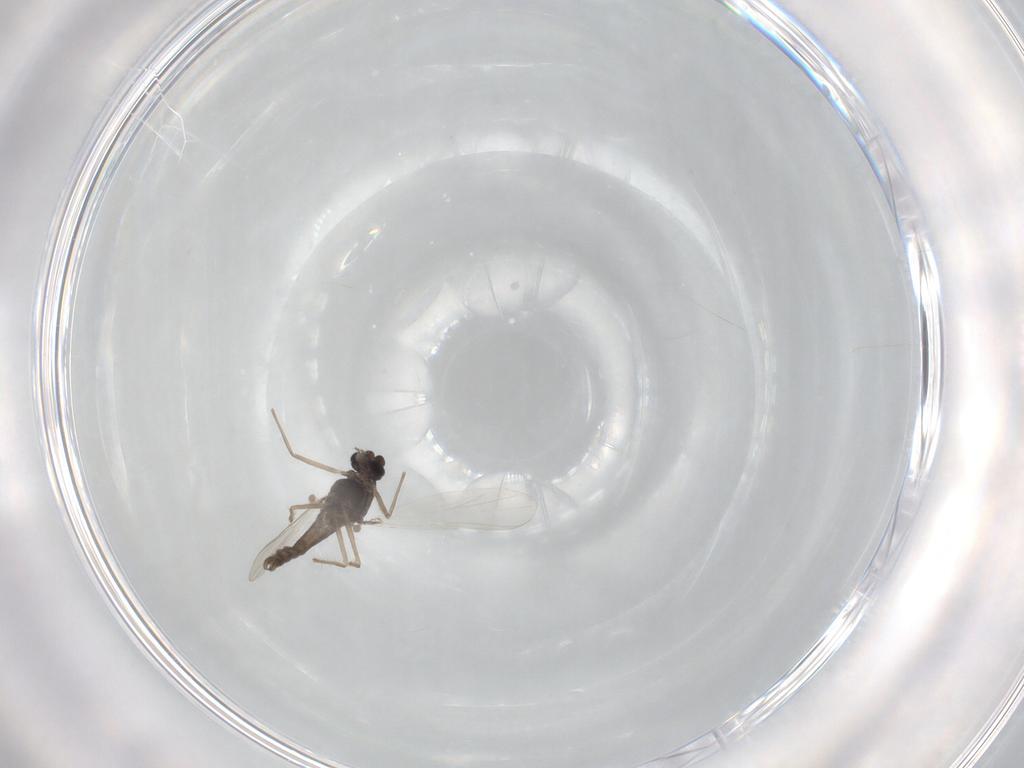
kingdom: Animalia
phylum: Arthropoda
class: Insecta
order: Diptera
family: Chironomidae
